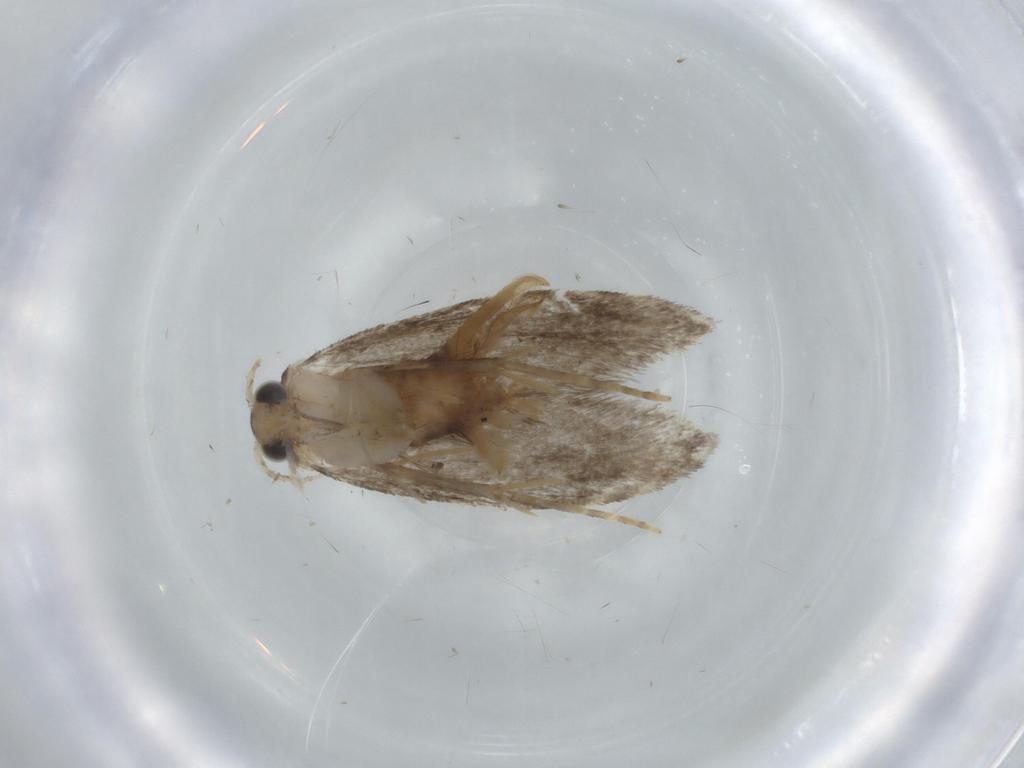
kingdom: Animalia
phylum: Arthropoda
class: Insecta
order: Lepidoptera
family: Tineidae
